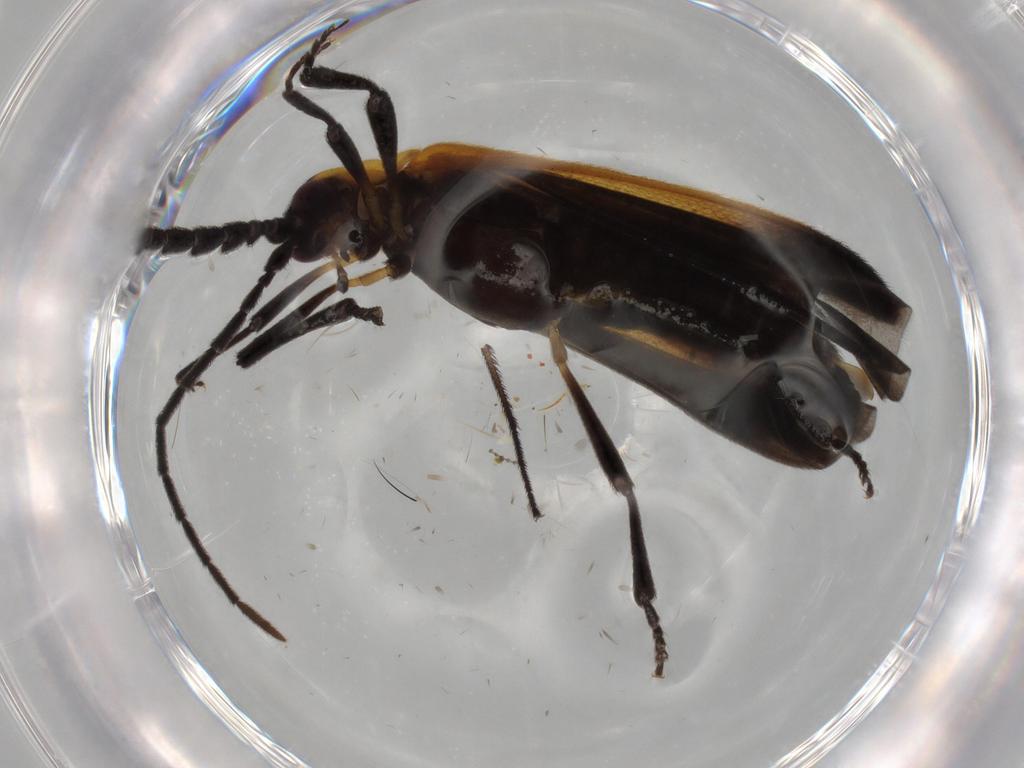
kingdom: Animalia
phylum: Arthropoda
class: Insecta
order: Coleoptera
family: Lycidae
